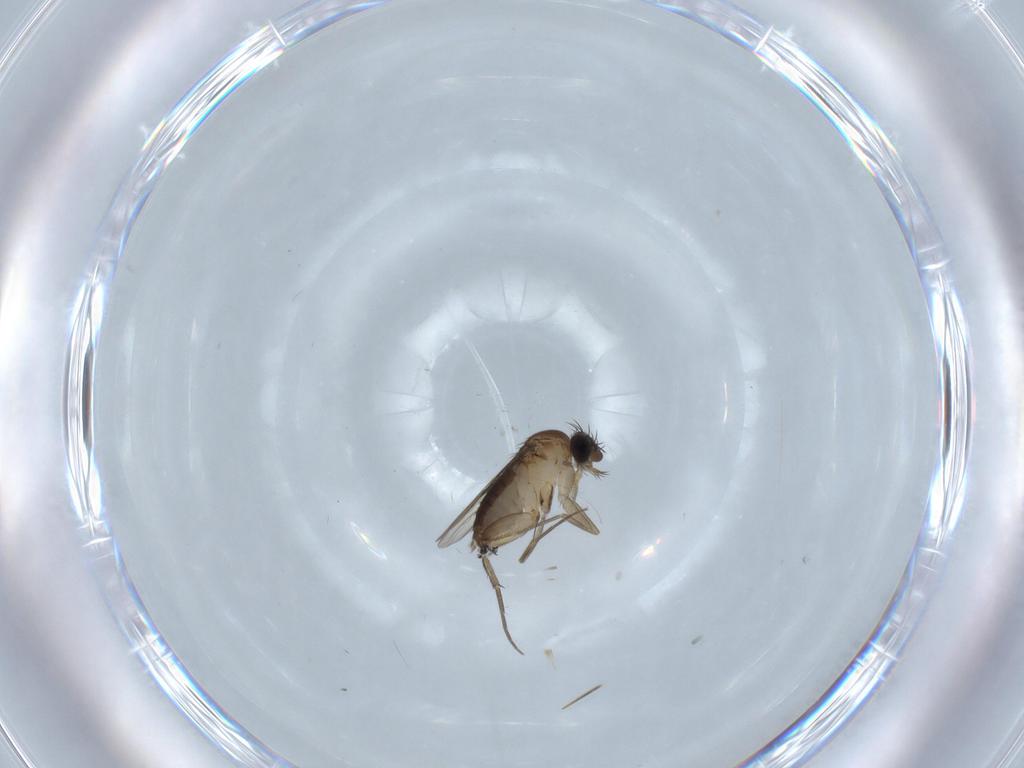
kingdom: Animalia
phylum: Arthropoda
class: Insecta
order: Diptera
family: Phoridae
